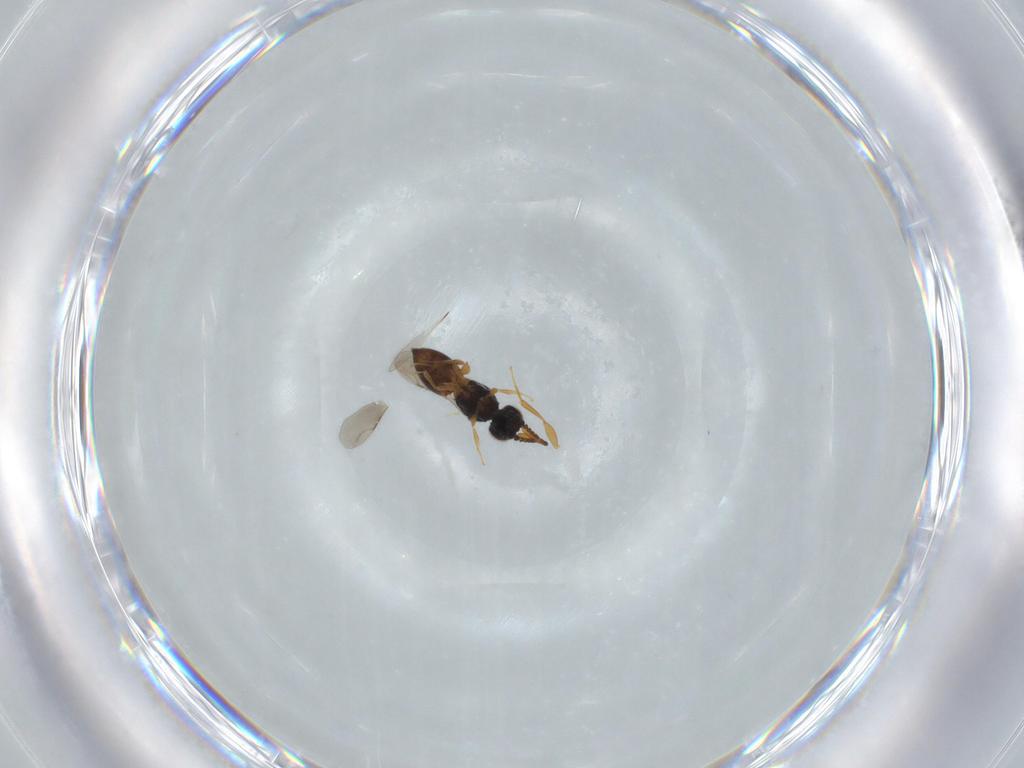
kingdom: Animalia
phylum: Arthropoda
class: Insecta
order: Hymenoptera
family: Ceraphronidae
